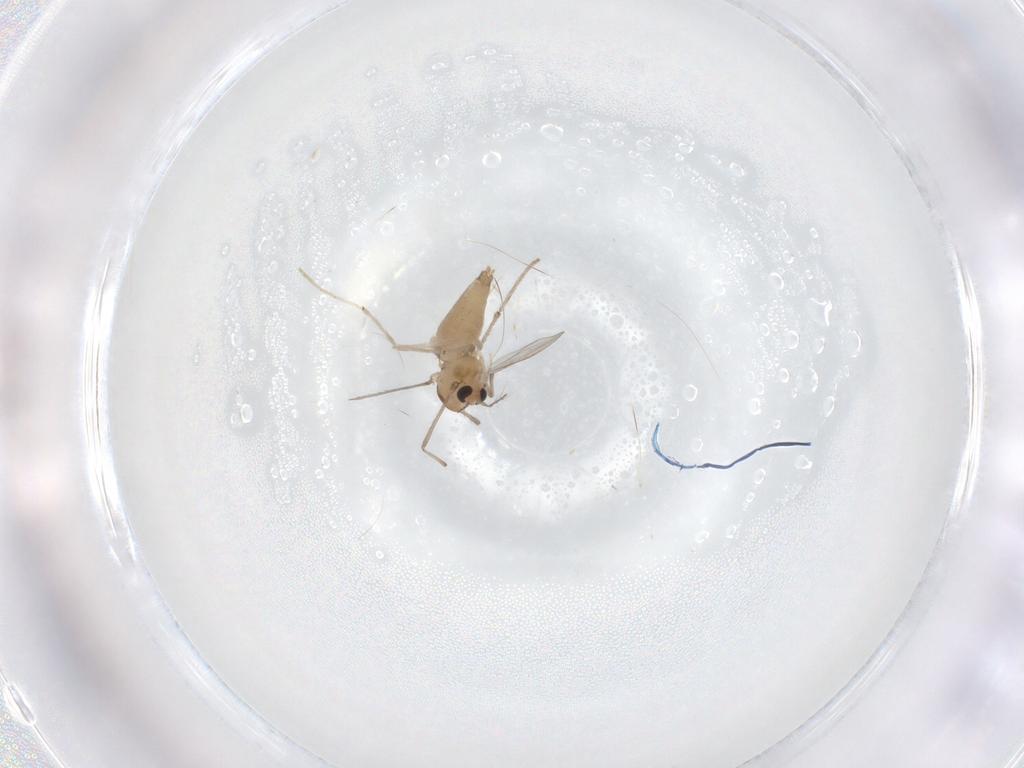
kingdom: Animalia
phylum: Arthropoda
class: Insecta
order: Diptera
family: Chironomidae
